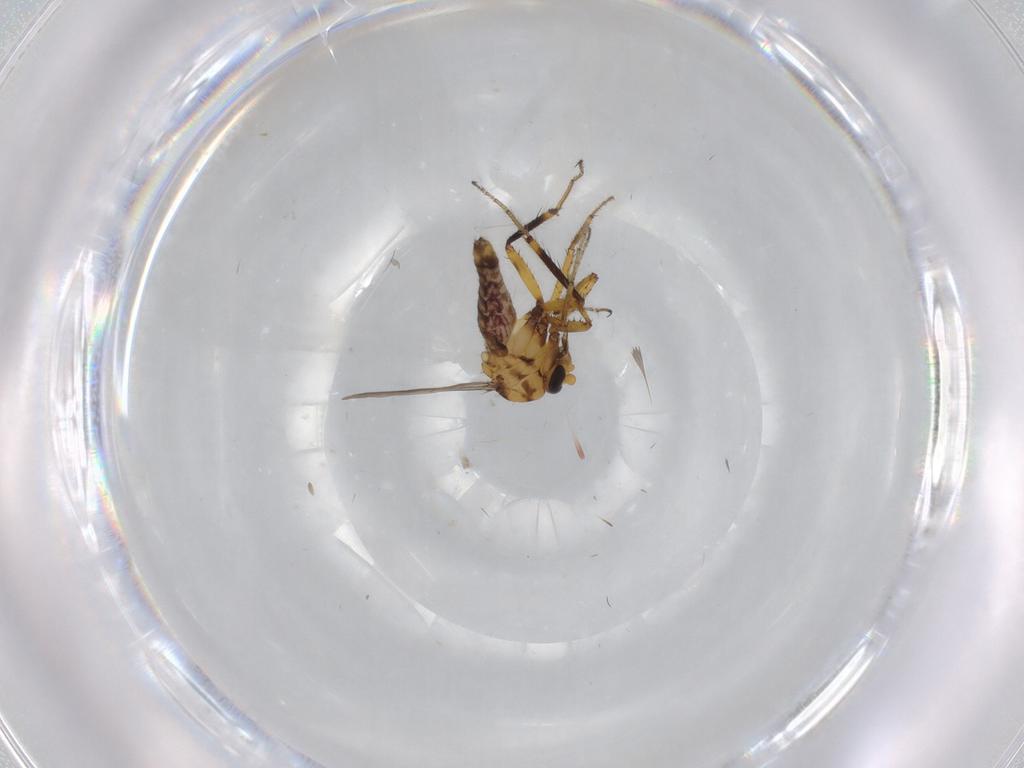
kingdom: Animalia
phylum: Arthropoda
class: Insecta
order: Diptera
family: Ceratopogonidae
